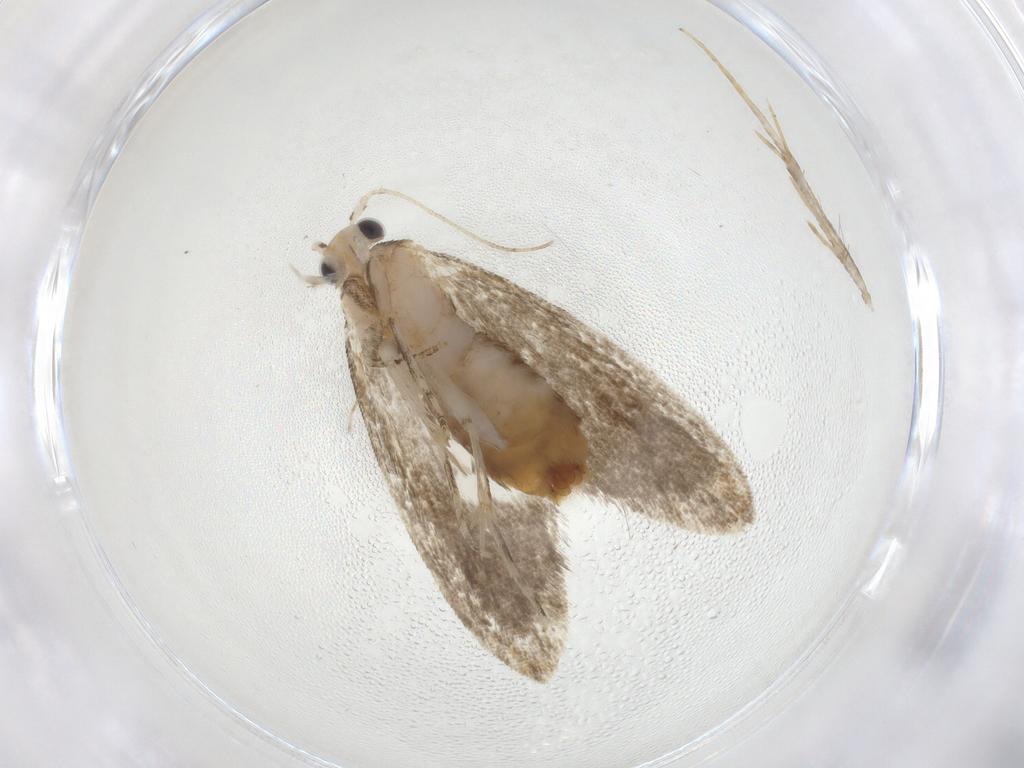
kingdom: Animalia
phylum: Arthropoda
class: Insecta
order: Lepidoptera
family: Tineidae
